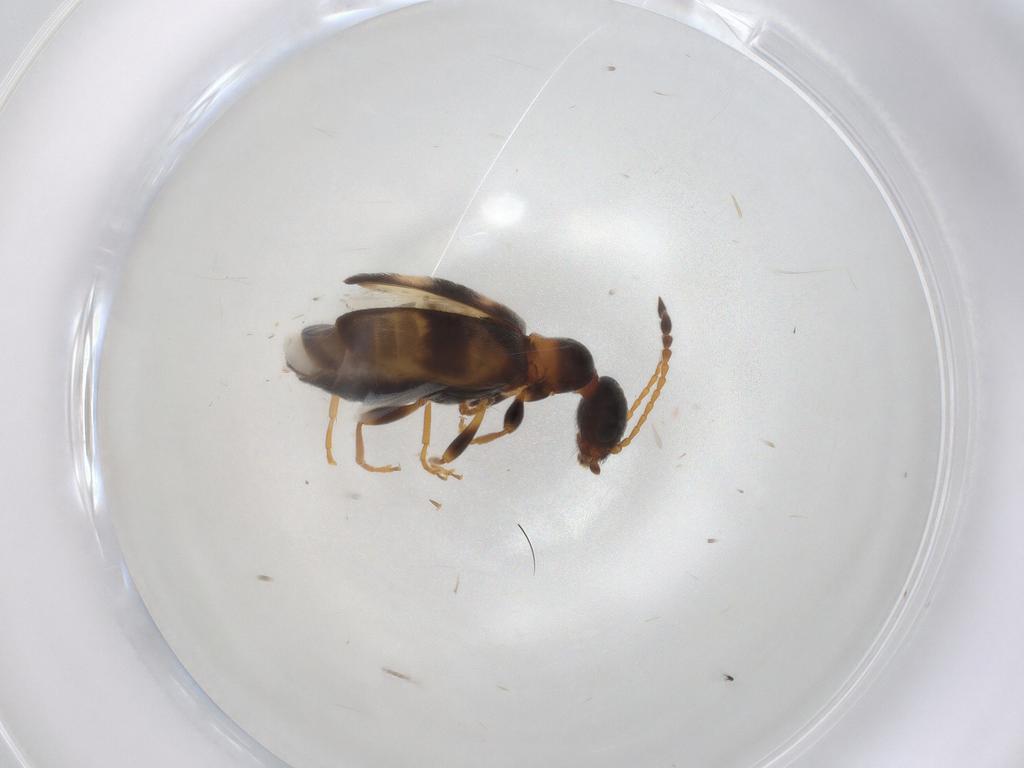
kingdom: Animalia
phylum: Arthropoda
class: Insecta
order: Coleoptera
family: Anthicidae
